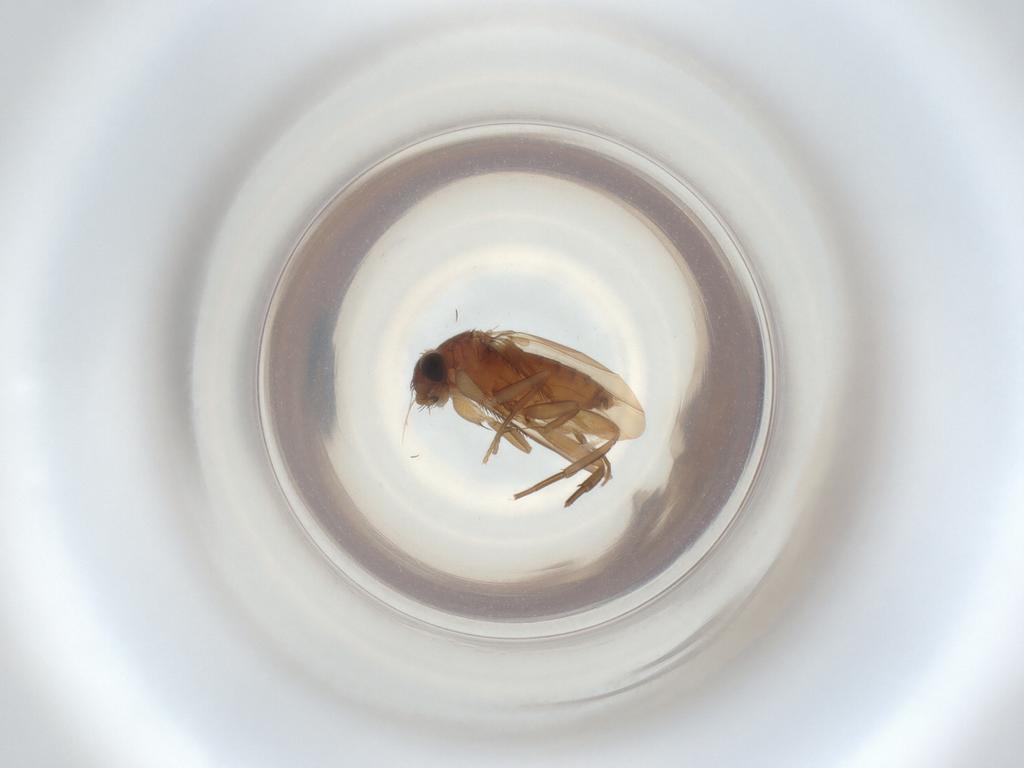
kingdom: Animalia
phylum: Arthropoda
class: Insecta
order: Diptera
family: Phoridae
